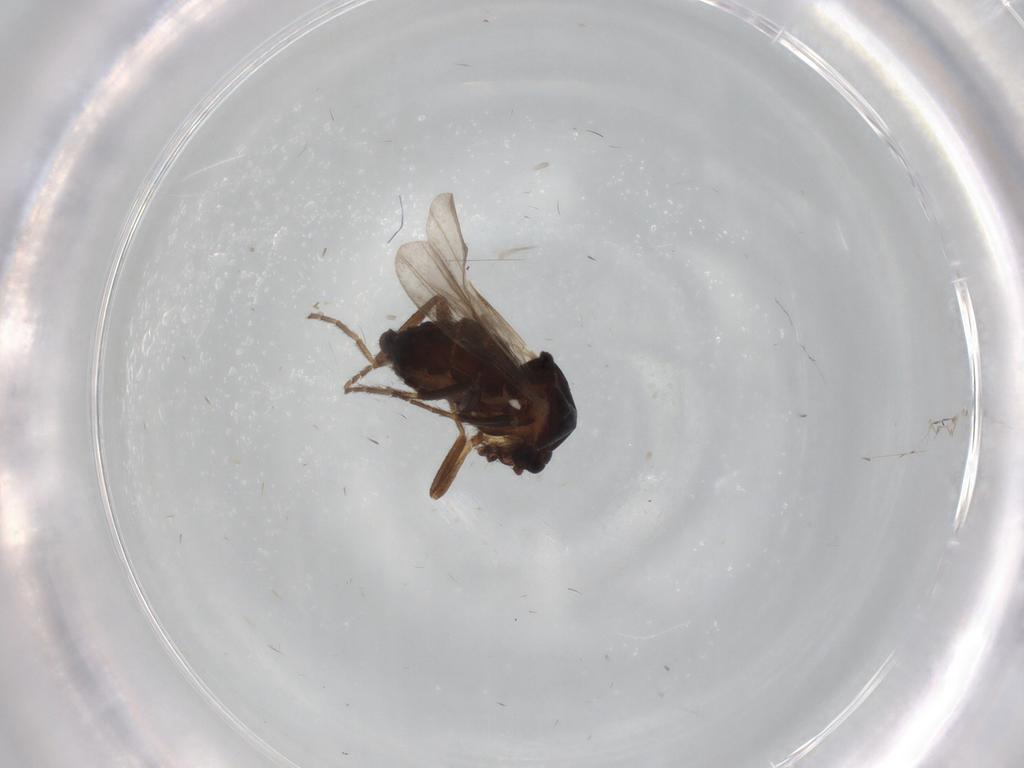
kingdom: Animalia
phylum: Arthropoda
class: Insecta
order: Diptera
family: Ceratopogonidae
